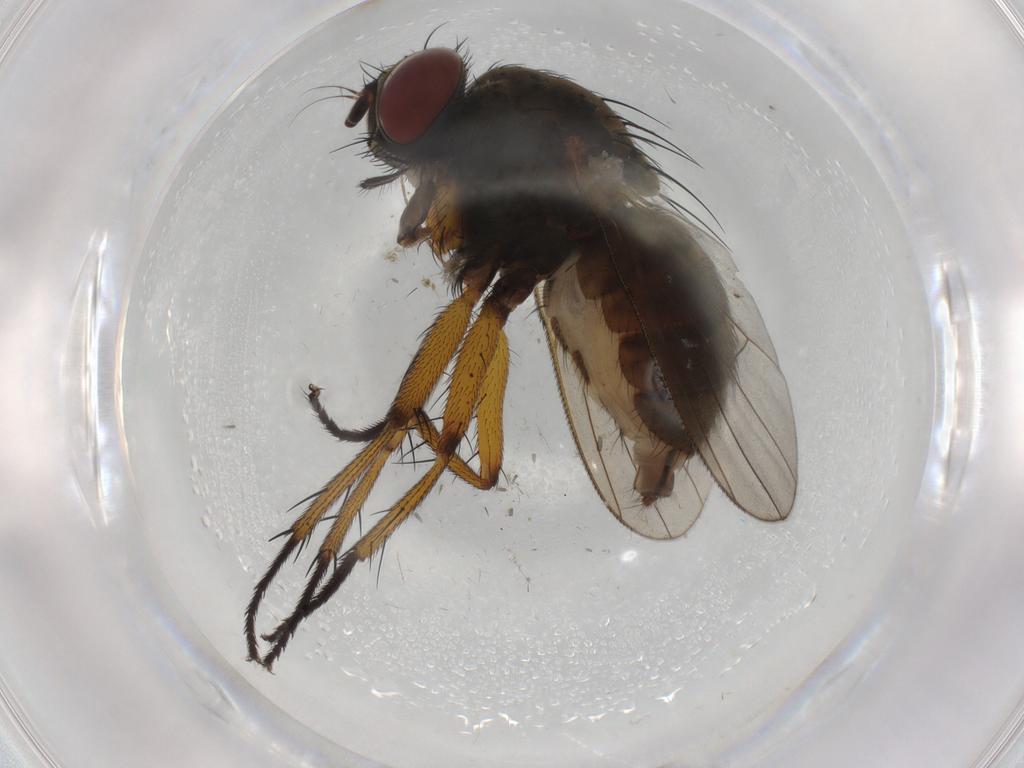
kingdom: Animalia
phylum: Arthropoda
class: Insecta
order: Diptera
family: Muscidae
